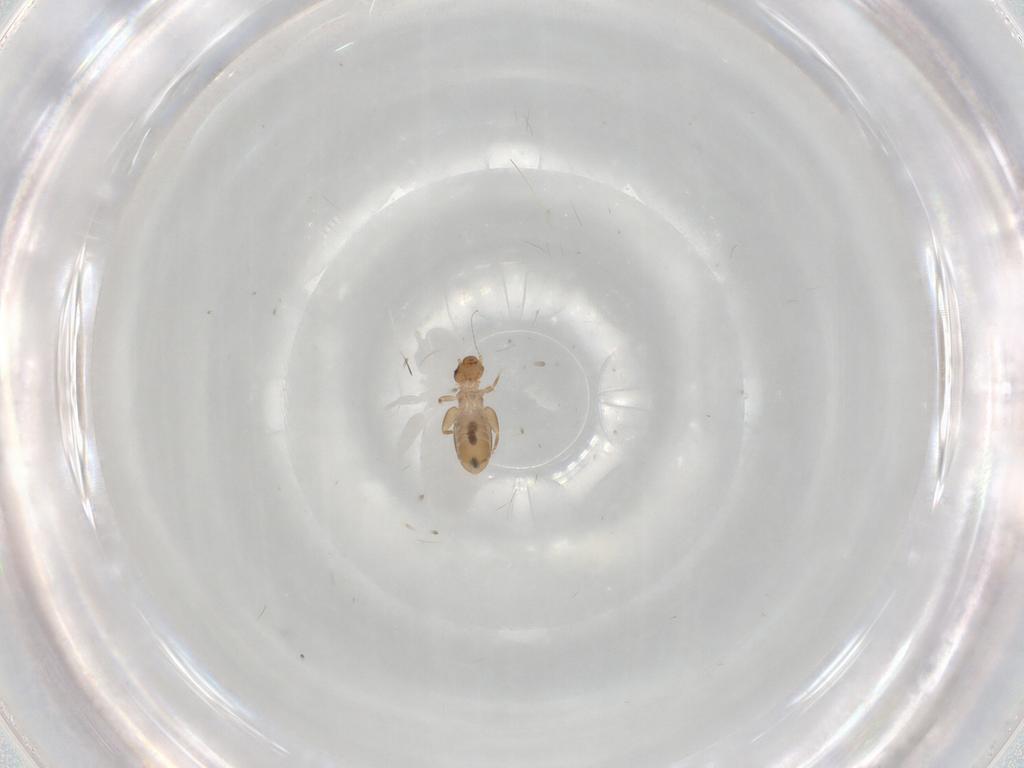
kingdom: Animalia
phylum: Arthropoda
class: Insecta
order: Psocodea
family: Liposcelididae
